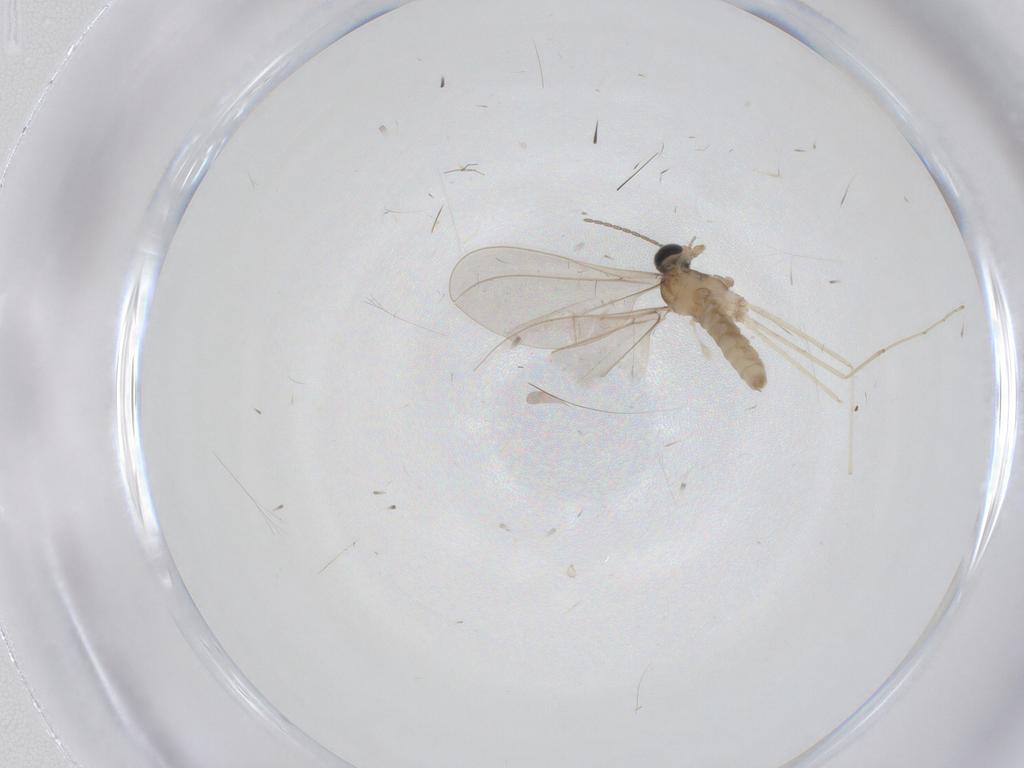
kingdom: Animalia
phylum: Arthropoda
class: Insecta
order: Diptera
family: Cecidomyiidae
